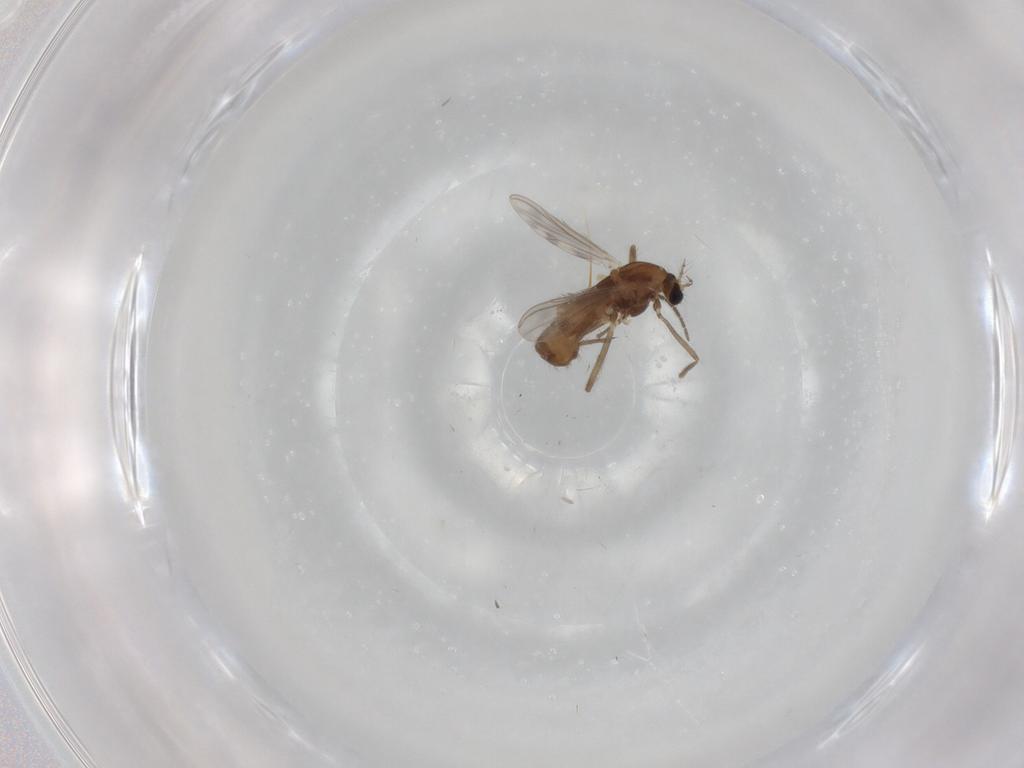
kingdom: Animalia
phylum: Arthropoda
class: Insecta
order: Diptera
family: Chironomidae
